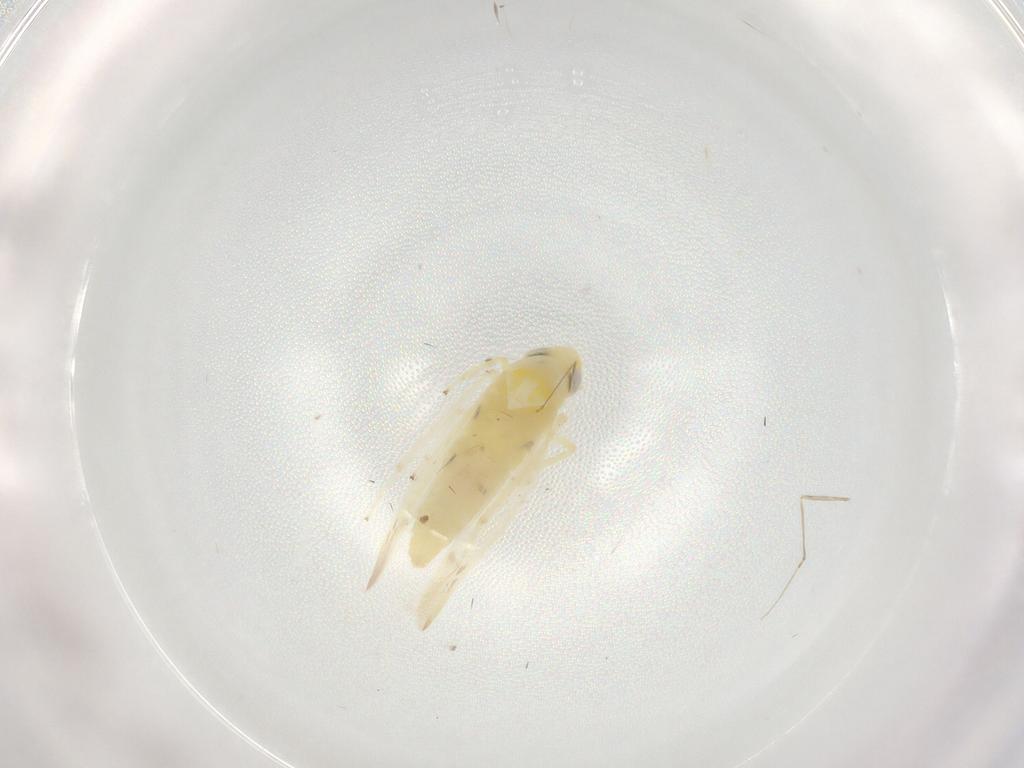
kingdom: Animalia
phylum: Arthropoda
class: Insecta
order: Hemiptera
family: Cicadellidae
